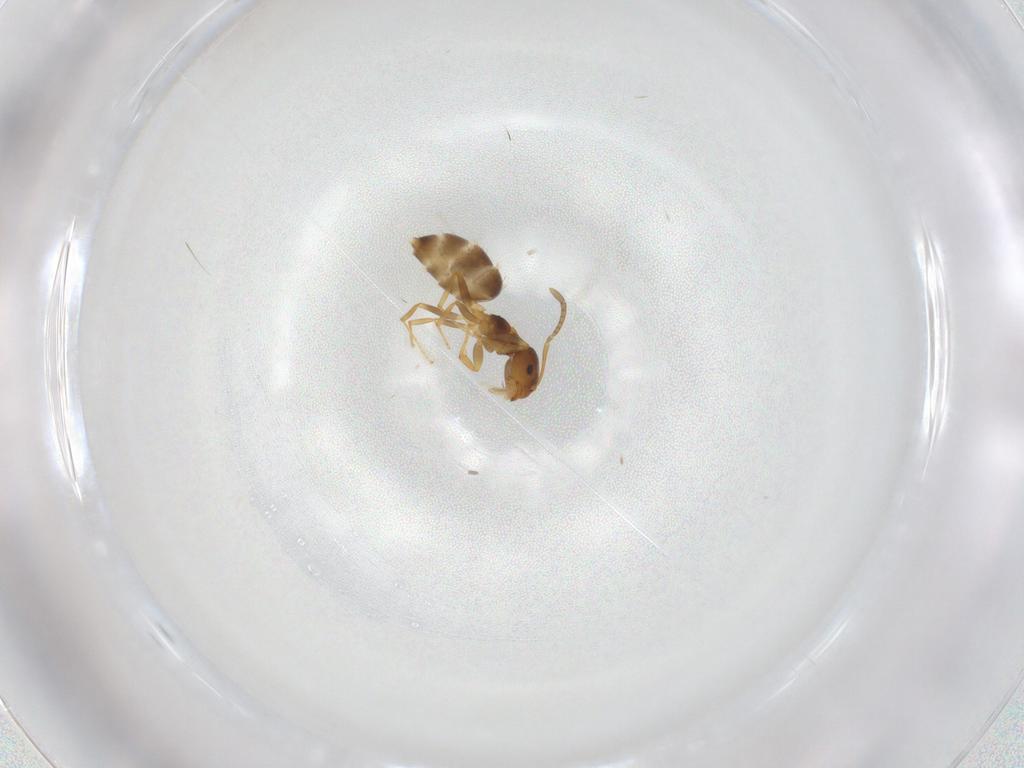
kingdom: Animalia
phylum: Arthropoda
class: Insecta
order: Hymenoptera
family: Formicidae
